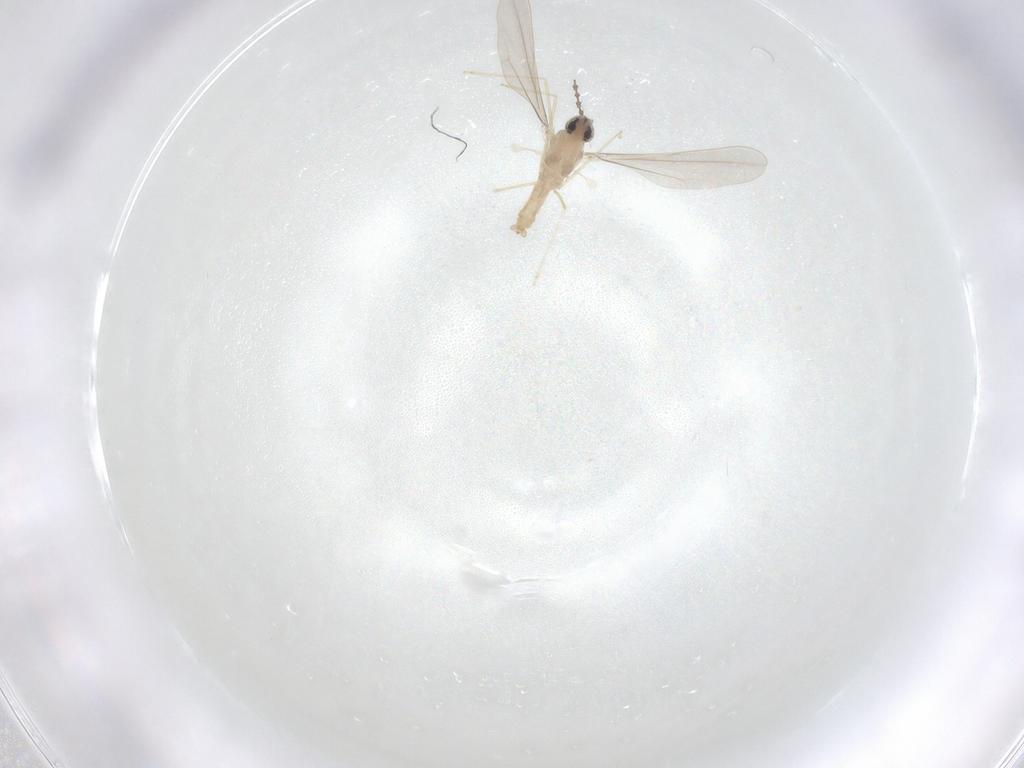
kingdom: Animalia
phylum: Arthropoda
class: Insecta
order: Diptera
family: Cecidomyiidae
